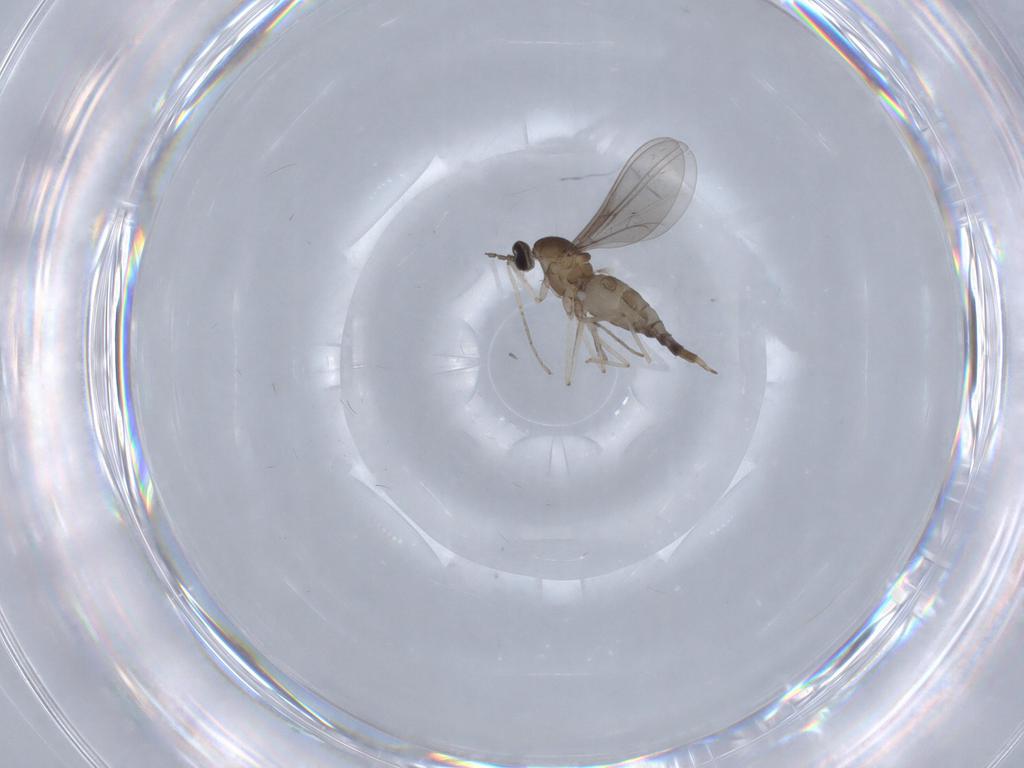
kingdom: Animalia
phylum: Arthropoda
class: Insecta
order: Diptera
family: Cecidomyiidae
